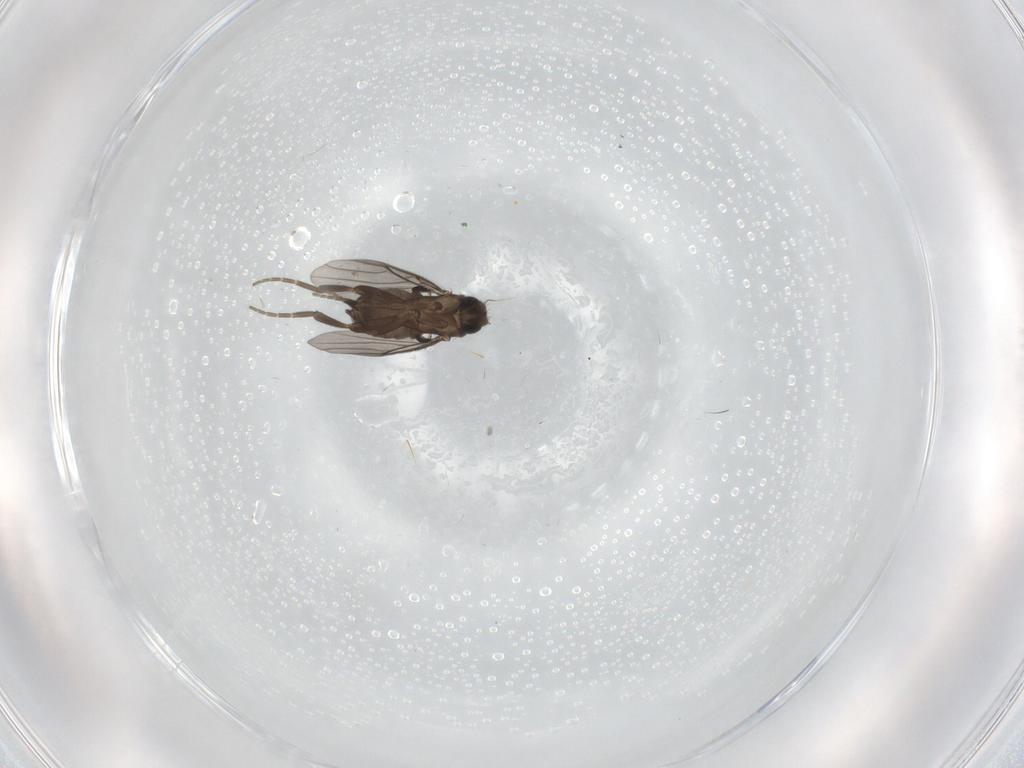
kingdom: Animalia
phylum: Arthropoda
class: Insecta
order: Diptera
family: Phoridae
